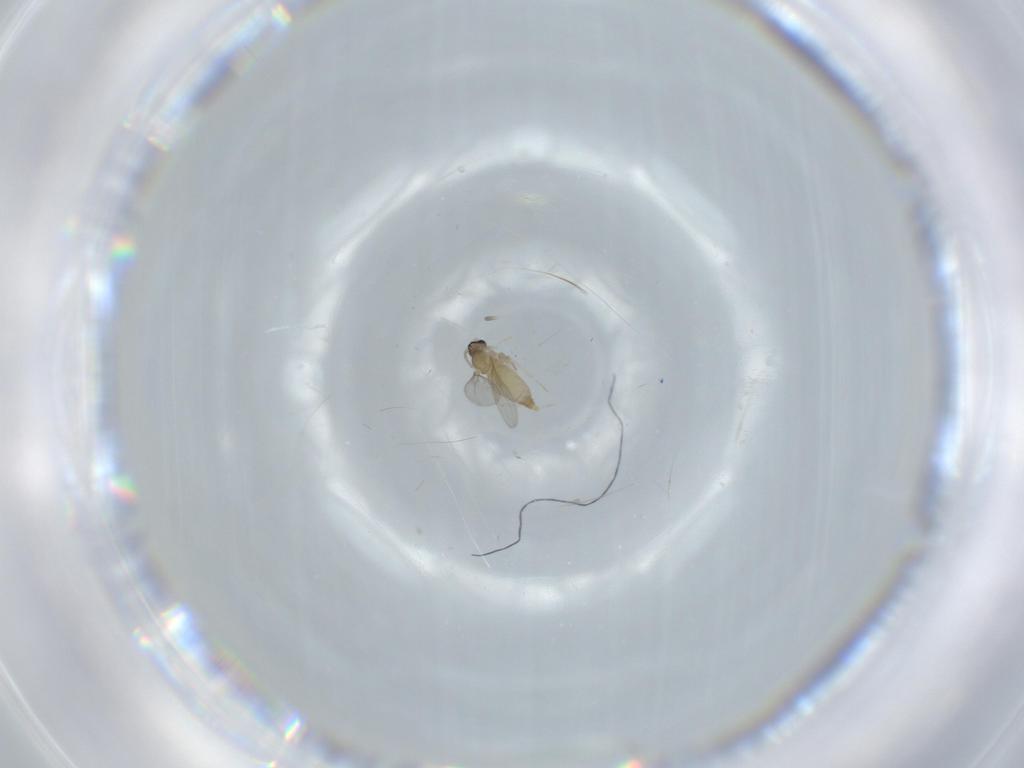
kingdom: Animalia
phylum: Arthropoda
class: Insecta
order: Diptera
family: Cecidomyiidae
